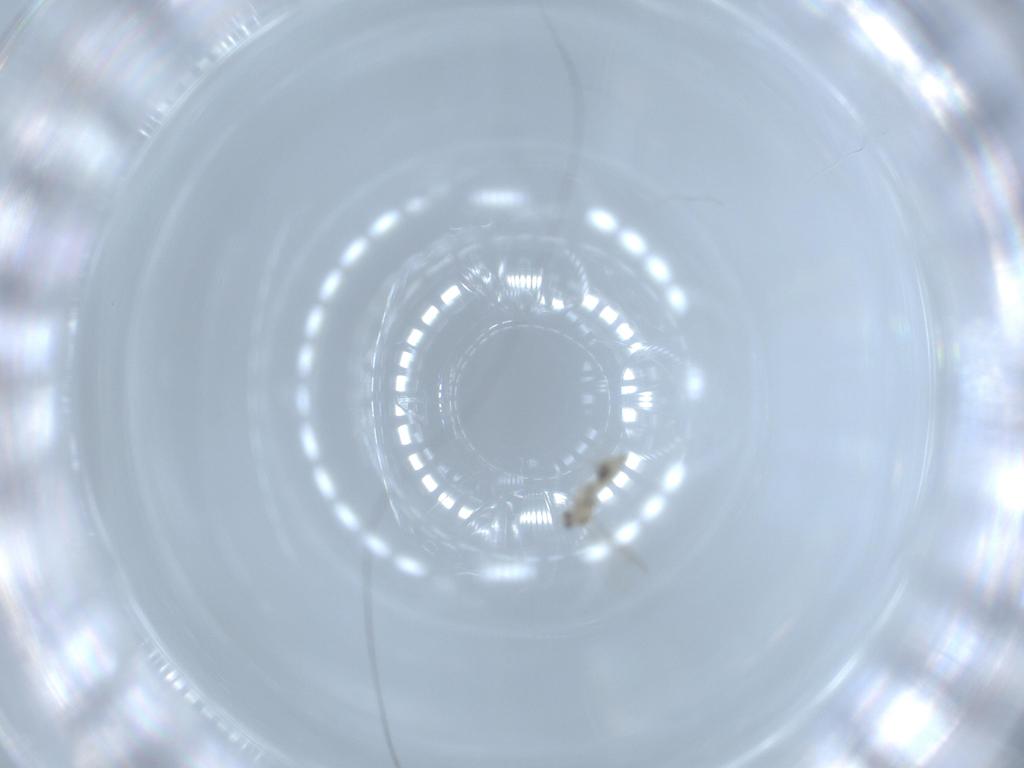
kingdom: Animalia
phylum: Arthropoda
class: Insecta
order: Diptera
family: Cecidomyiidae
